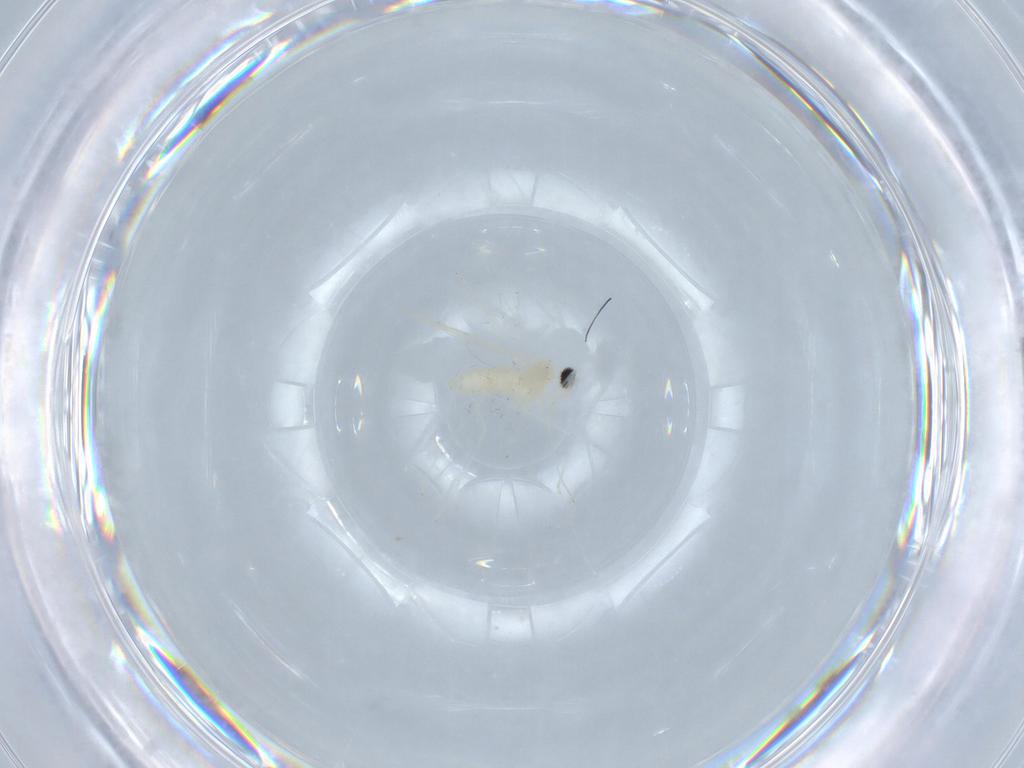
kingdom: Animalia
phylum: Arthropoda
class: Insecta
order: Diptera
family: Cecidomyiidae
